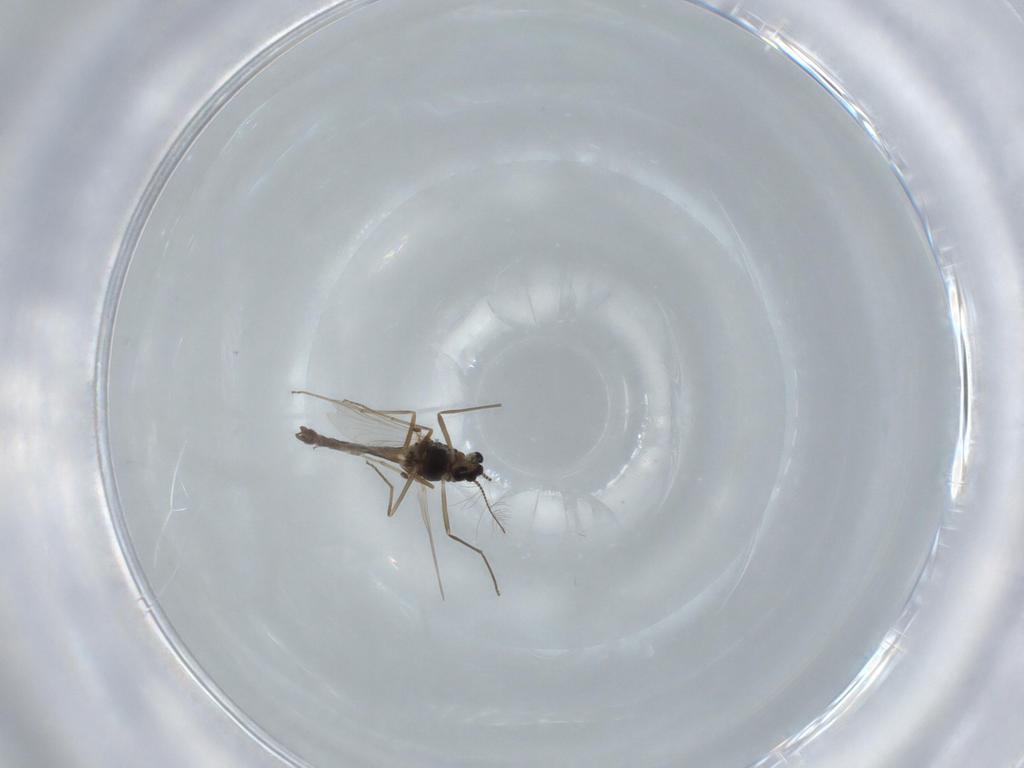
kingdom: Animalia
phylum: Arthropoda
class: Insecta
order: Diptera
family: Chironomidae
